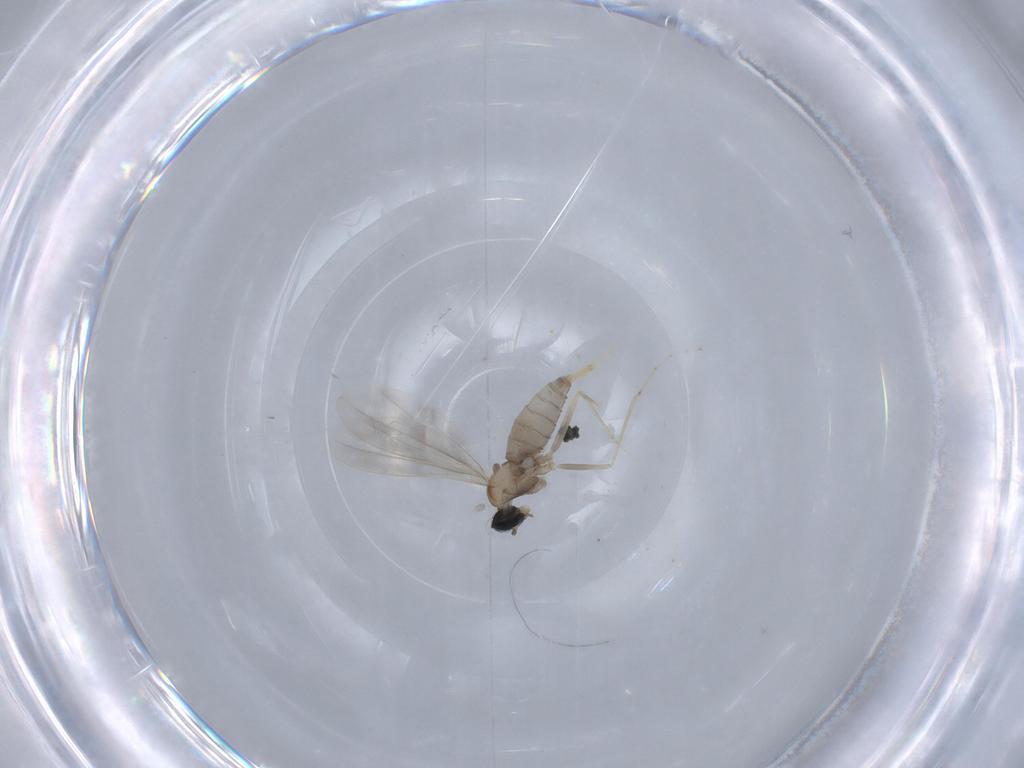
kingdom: Animalia
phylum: Arthropoda
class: Insecta
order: Diptera
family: Cecidomyiidae
